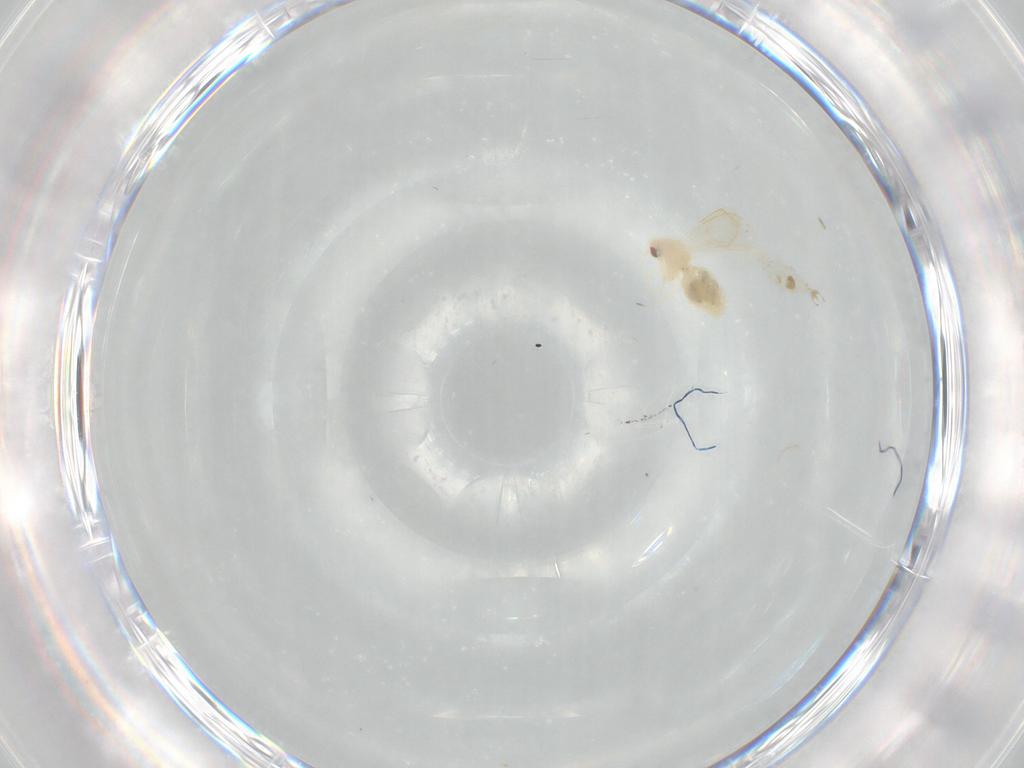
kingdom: Animalia
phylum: Arthropoda
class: Insecta
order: Hemiptera
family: Aleyrodidae
